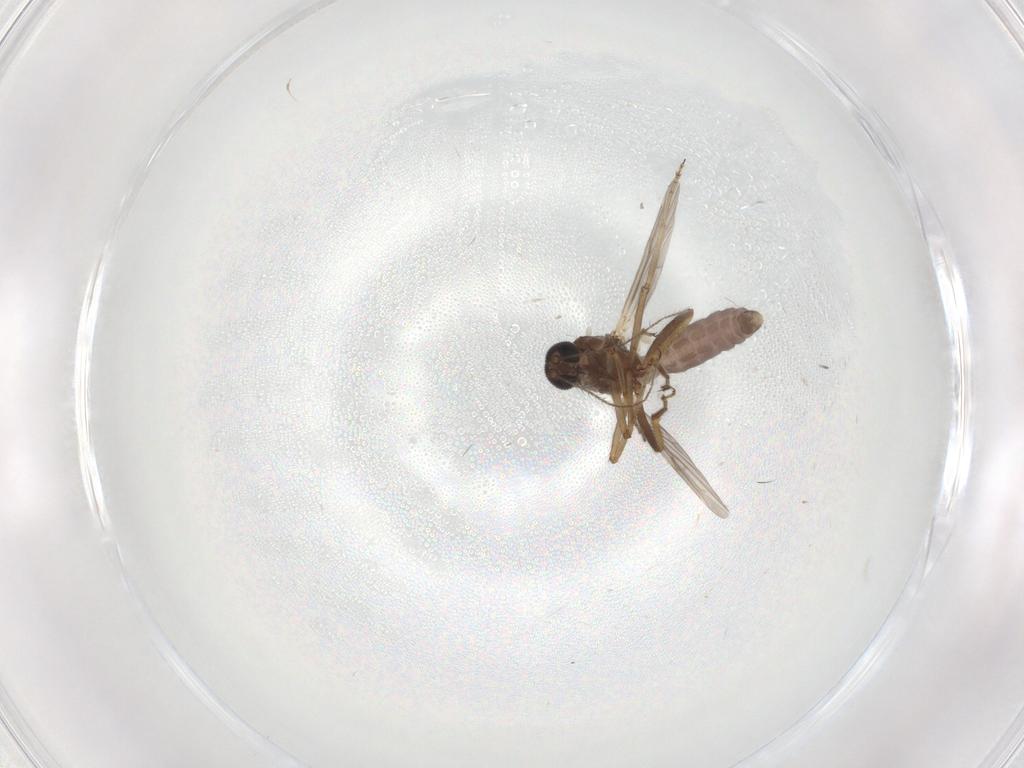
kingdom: Animalia
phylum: Arthropoda
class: Insecta
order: Diptera
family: Ceratopogonidae
